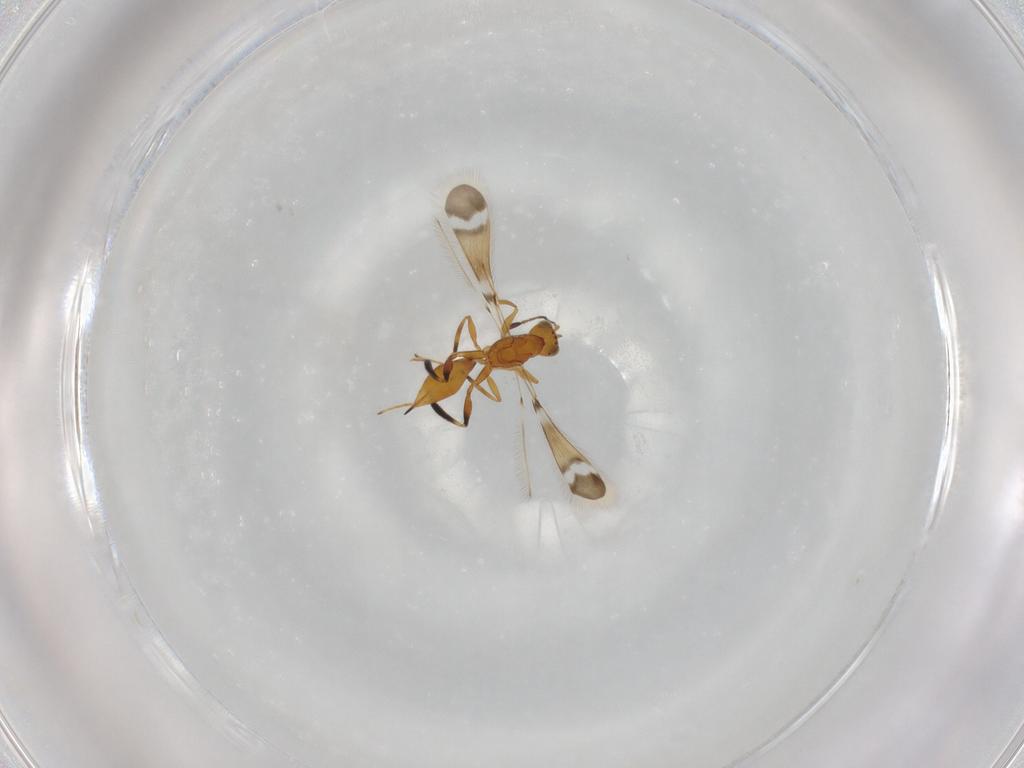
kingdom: Animalia
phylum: Arthropoda
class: Insecta
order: Hymenoptera
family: Mymaridae
